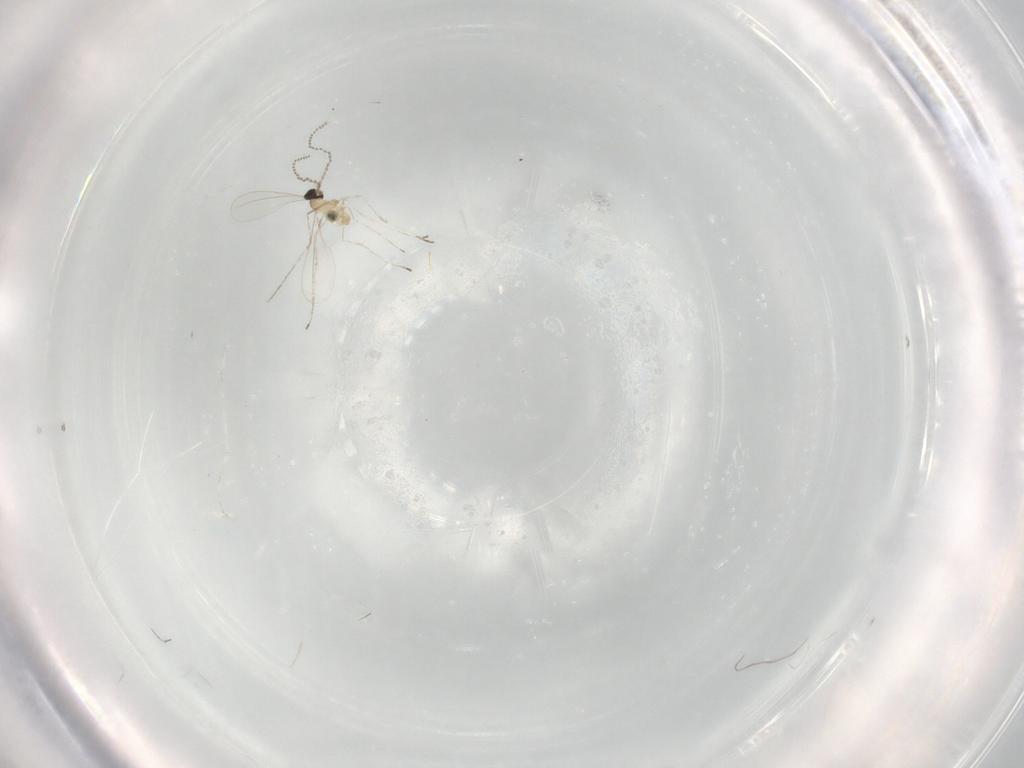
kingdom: Animalia
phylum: Arthropoda
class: Insecta
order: Diptera
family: Cecidomyiidae
